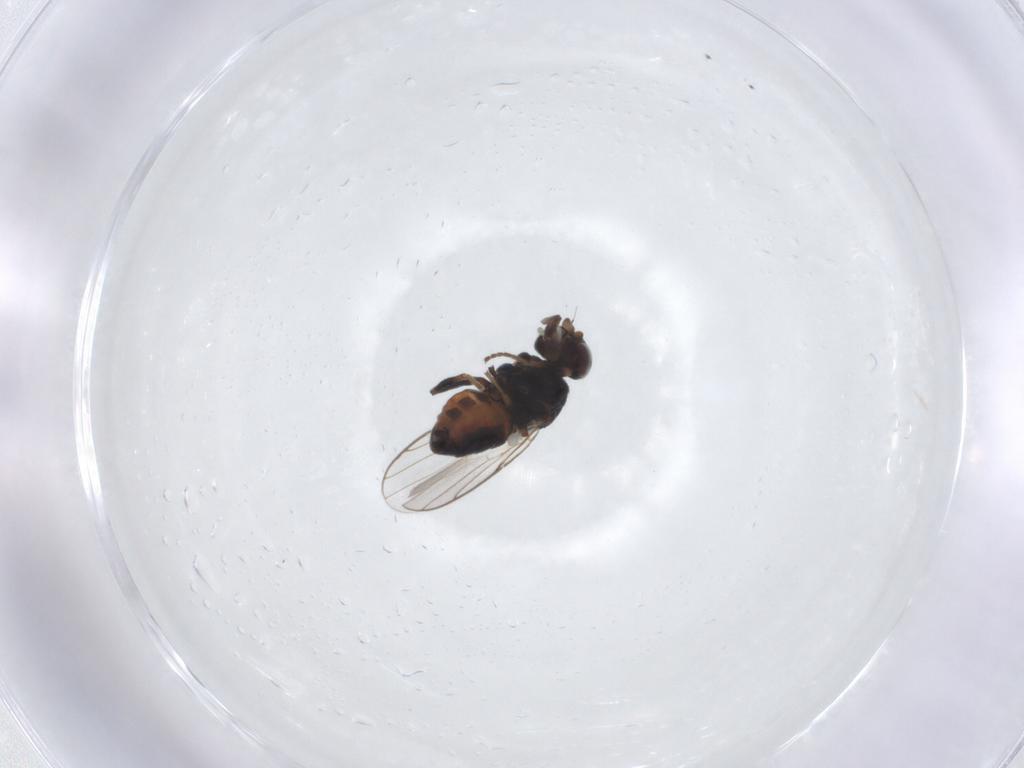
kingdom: Animalia
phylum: Arthropoda
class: Insecta
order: Diptera
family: Chloropidae
